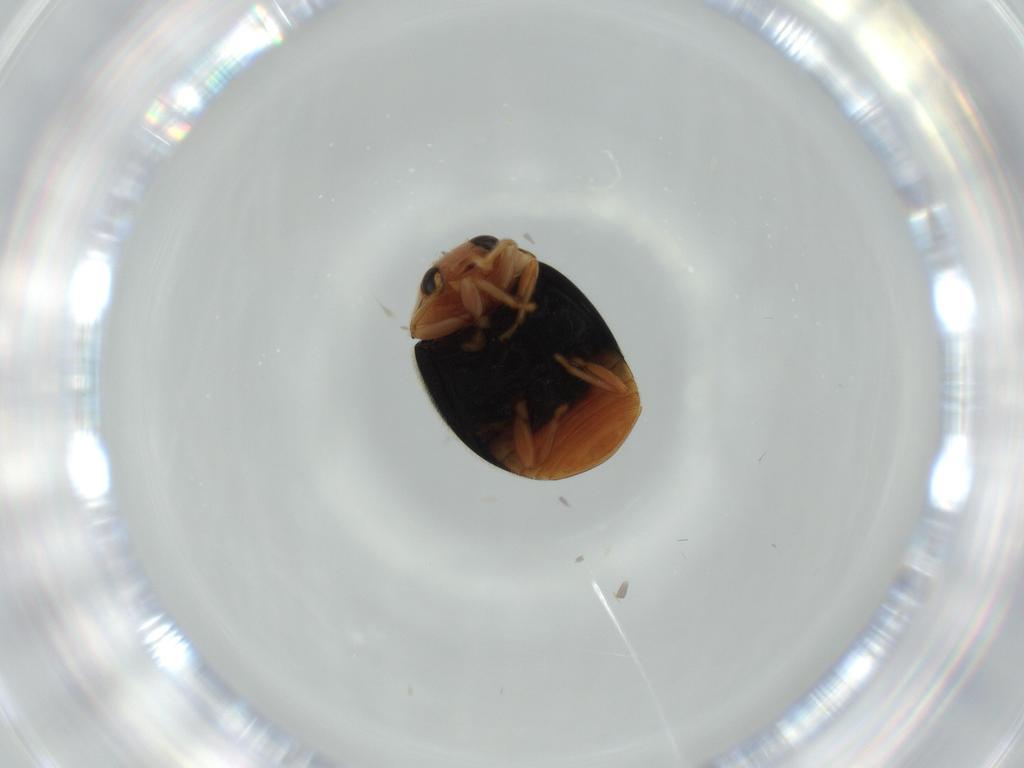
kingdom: Animalia
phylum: Arthropoda
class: Insecta
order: Coleoptera
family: Coccinellidae
